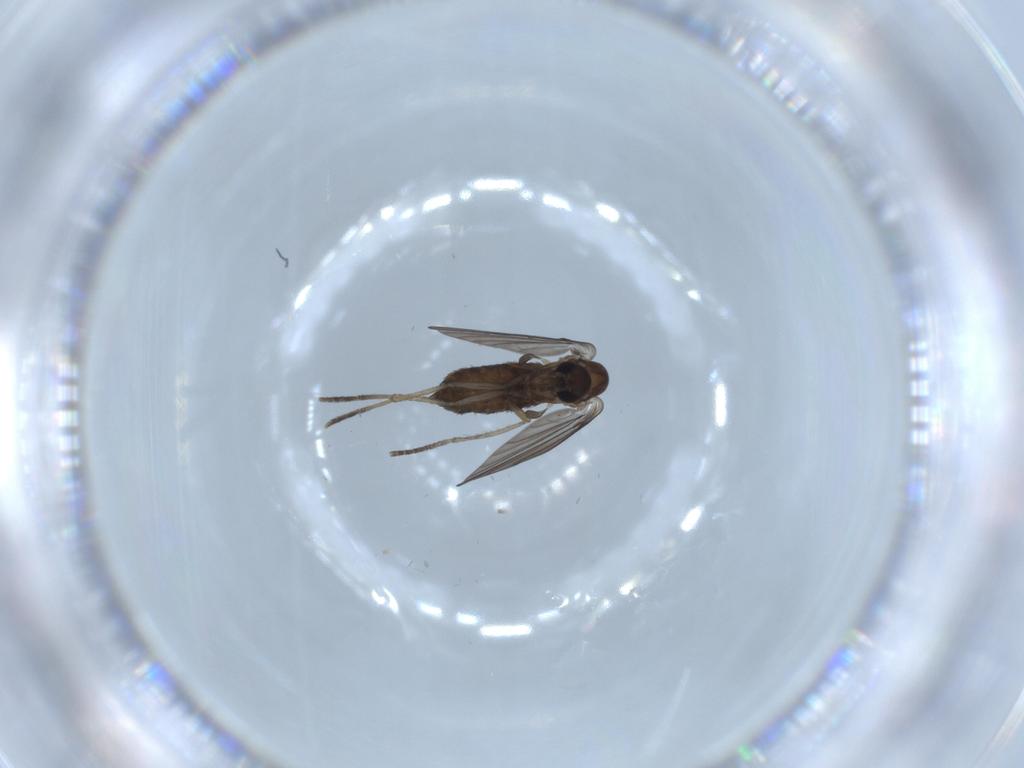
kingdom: Animalia
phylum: Arthropoda
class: Insecta
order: Diptera
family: Psychodidae
